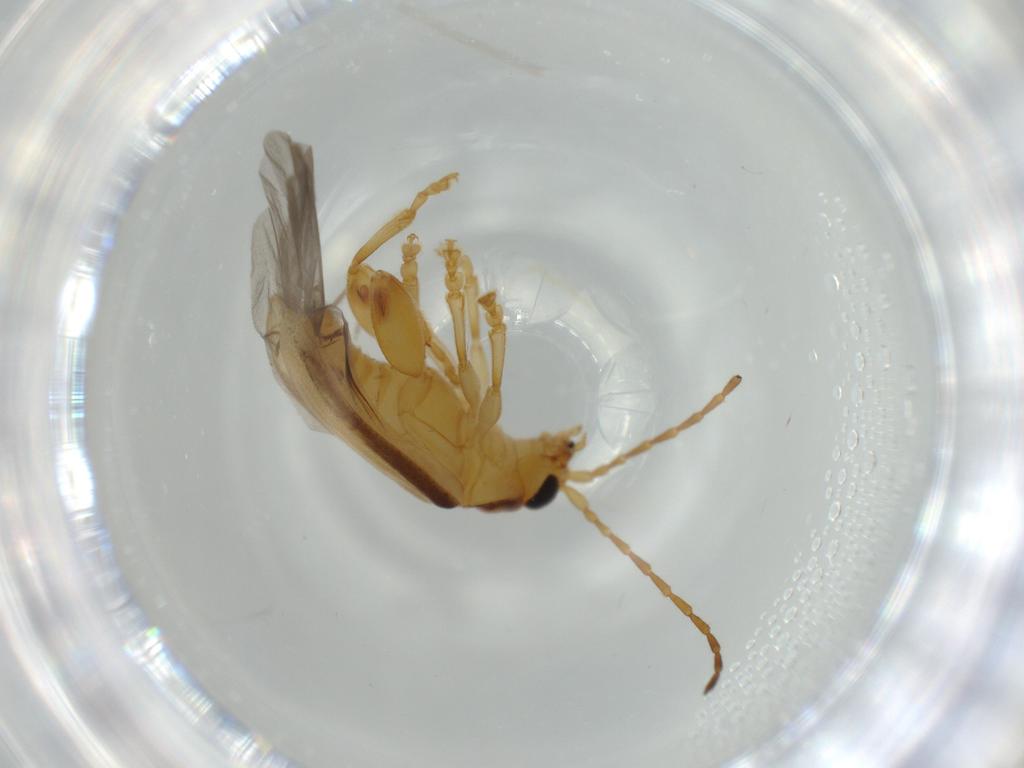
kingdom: Animalia
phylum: Arthropoda
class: Insecta
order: Coleoptera
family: Chrysomelidae
